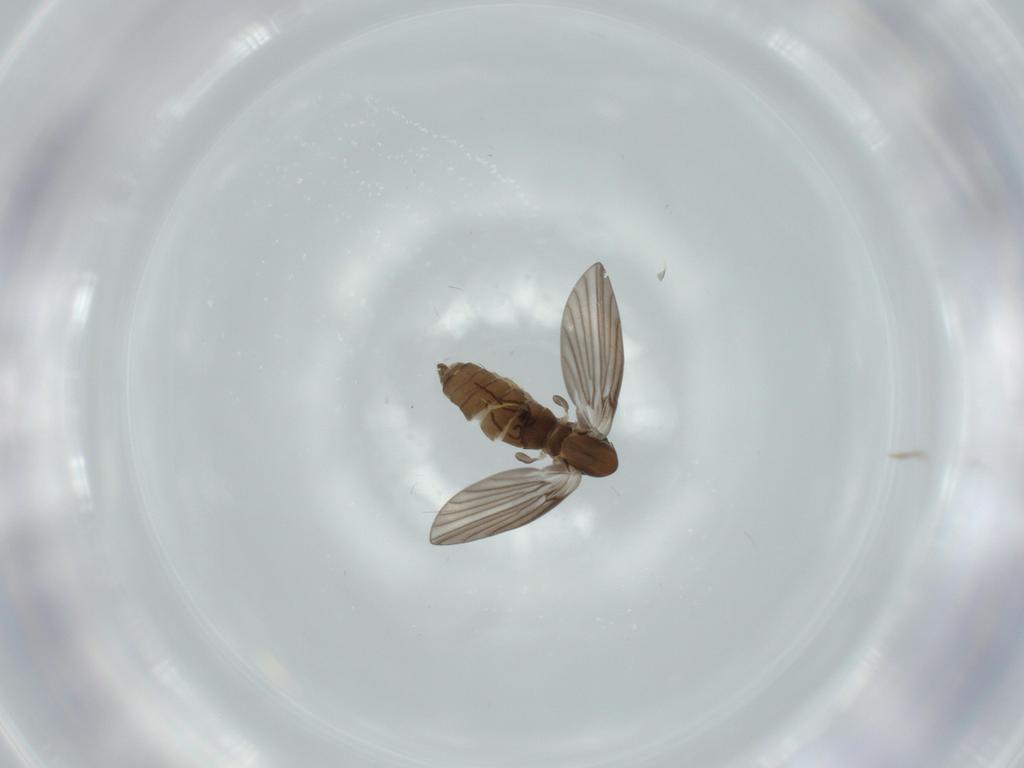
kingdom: Animalia
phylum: Arthropoda
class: Insecta
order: Diptera
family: Psychodidae
